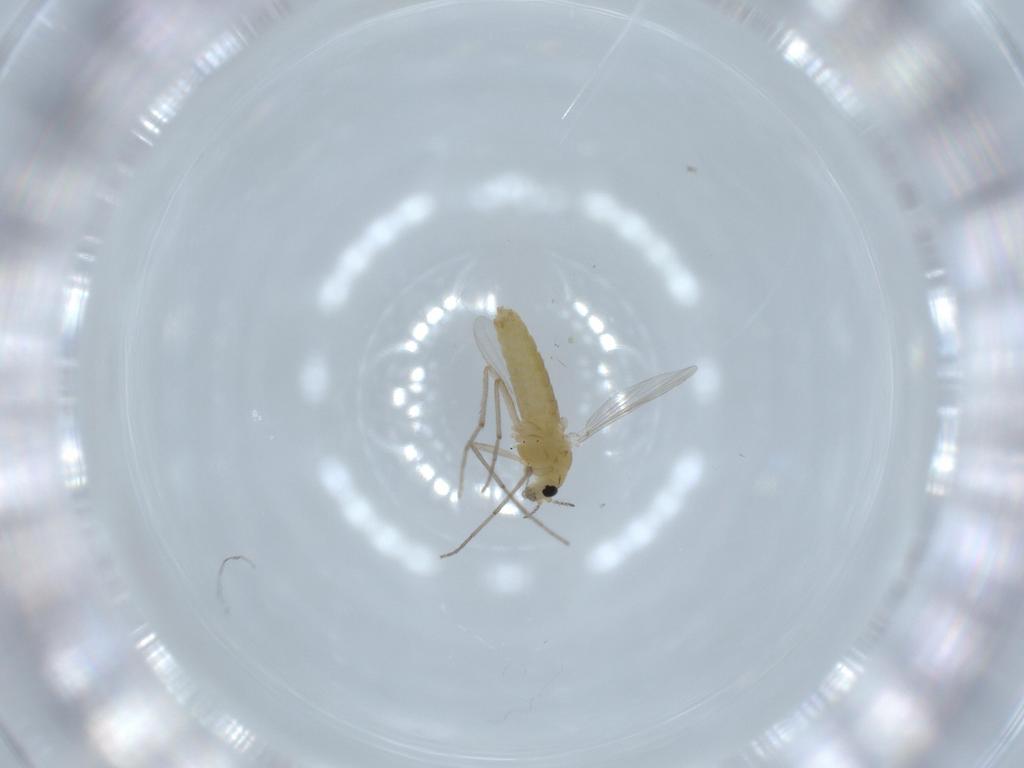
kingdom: Animalia
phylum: Arthropoda
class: Insecta
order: Diptera
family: Chironomidae
